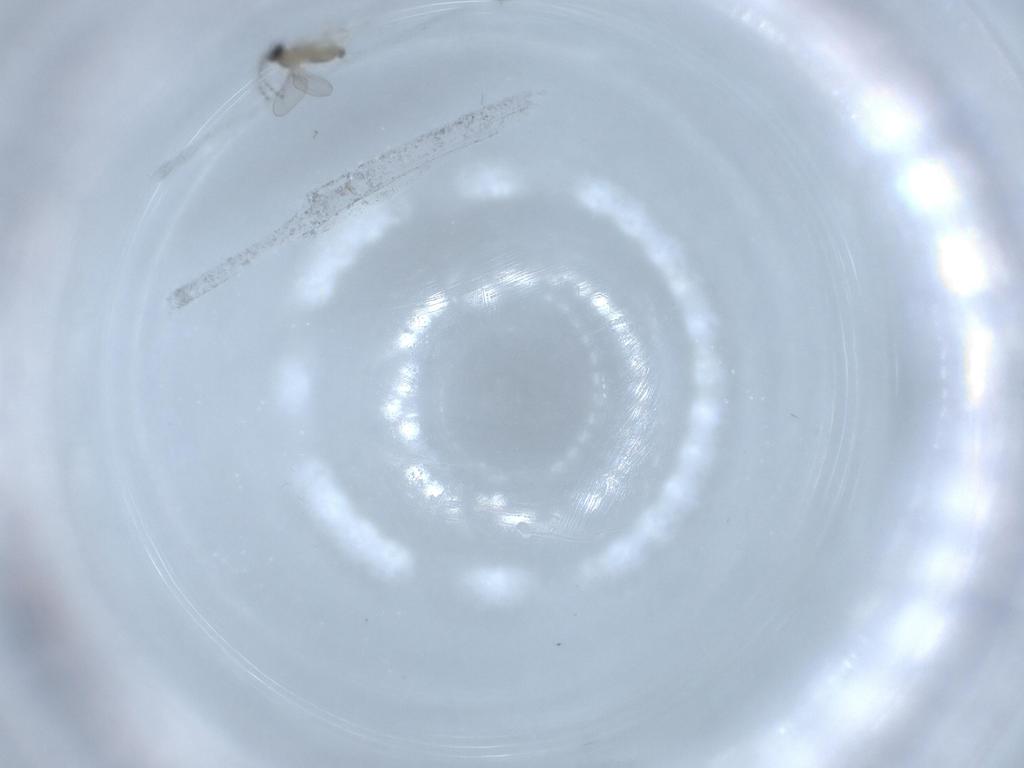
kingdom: Animalia
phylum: Arthropoda
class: Insecta
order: Diptera
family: Cecidomyiidae
